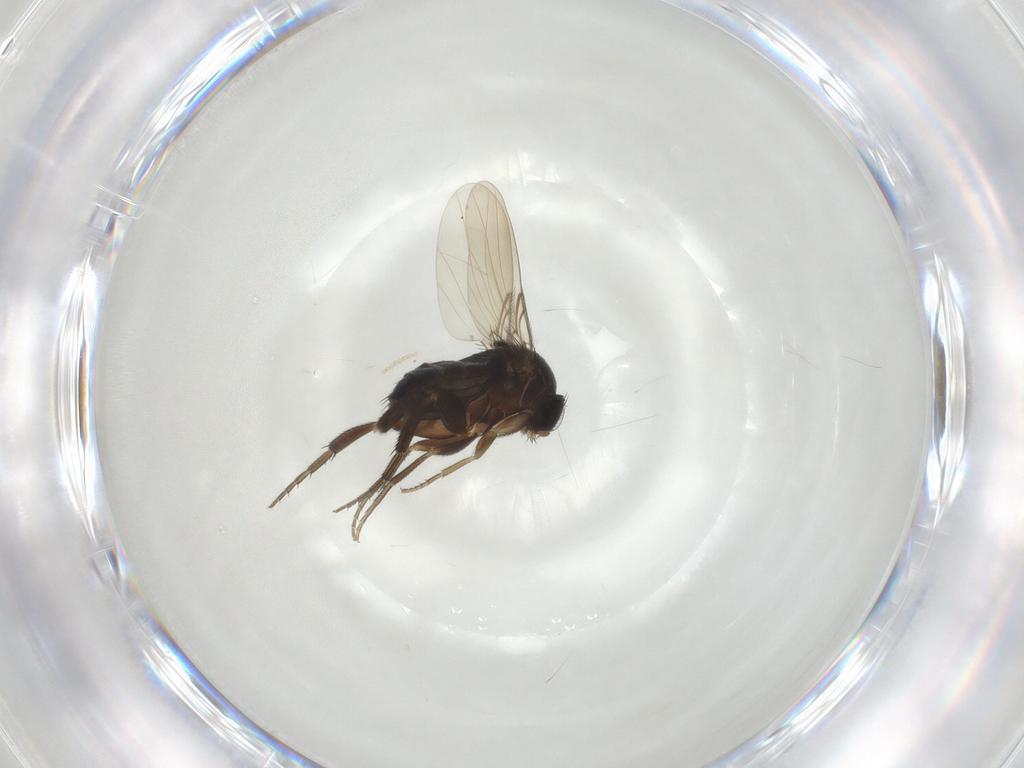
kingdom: Animalia
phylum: Arthropoda
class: Insecta
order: Diptera
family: Phoridae
